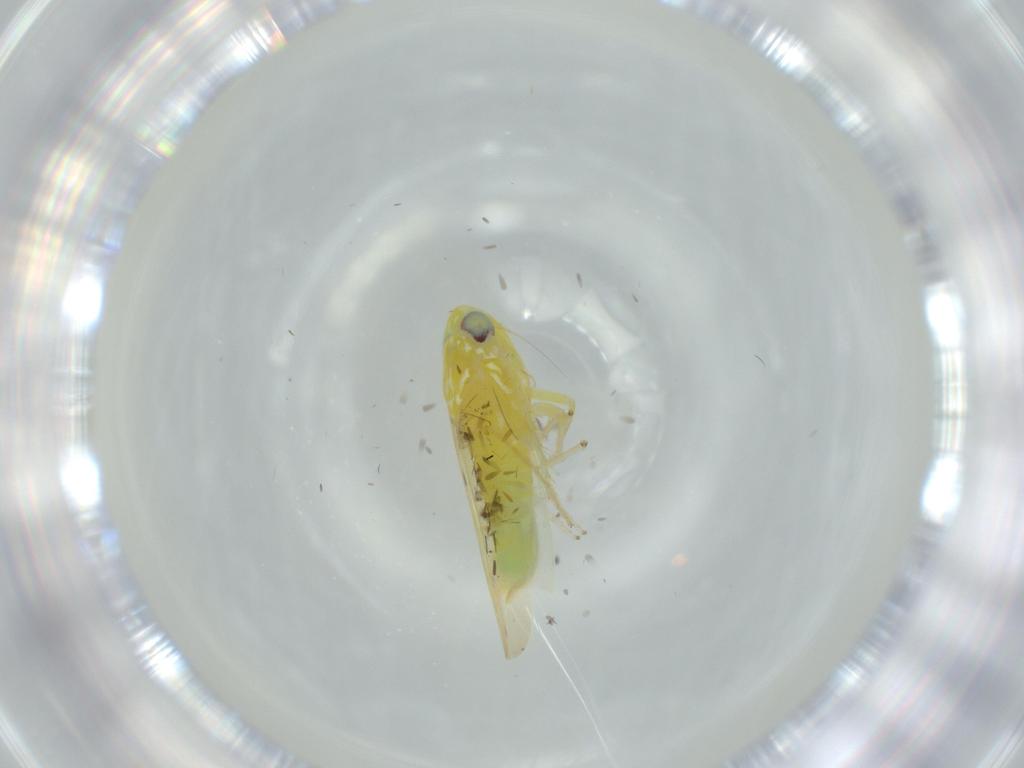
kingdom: Animalia
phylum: Arthropoda
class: Insecta
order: Hemiptera
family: Cicadellidae
